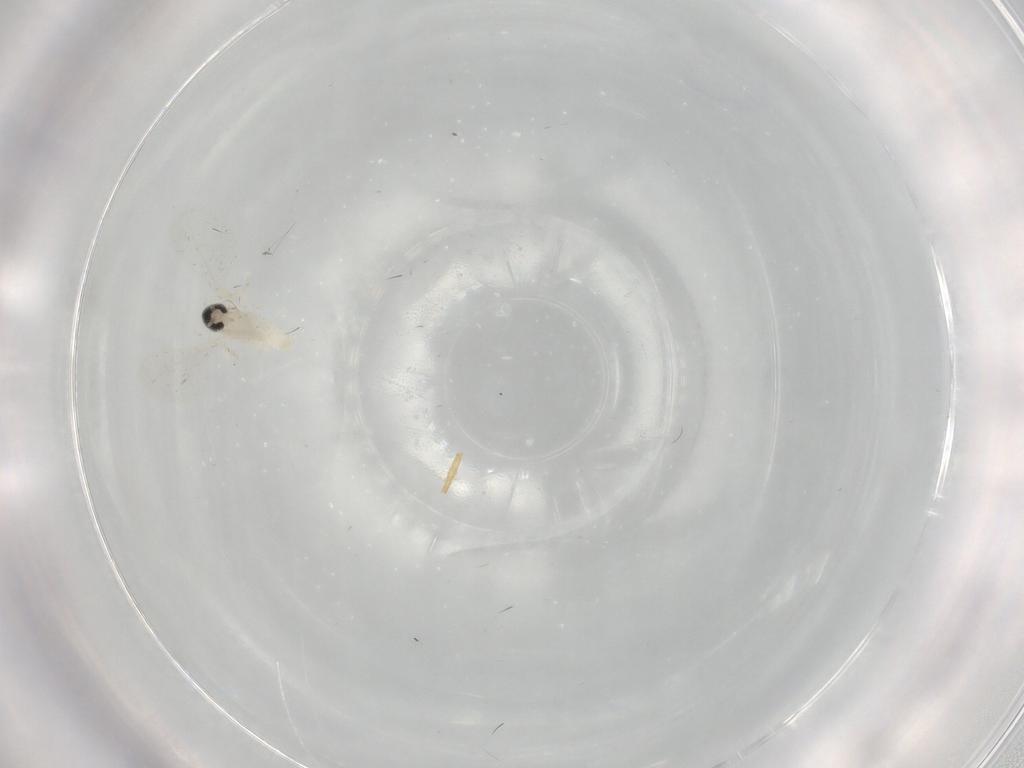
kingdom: Animalia
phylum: Arthropoda
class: Insecta
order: Diptera
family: Cecidomyiidae
